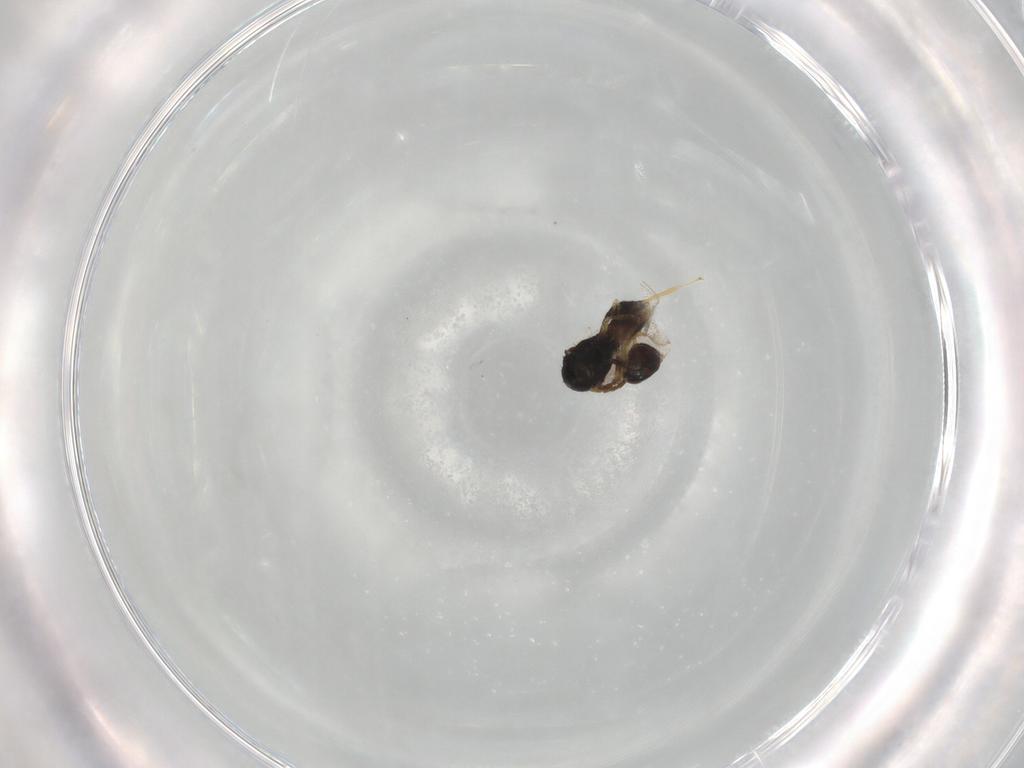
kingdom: Animalia
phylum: Arthropoda
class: Insecta
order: Hymenoptera
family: Eulophidae
